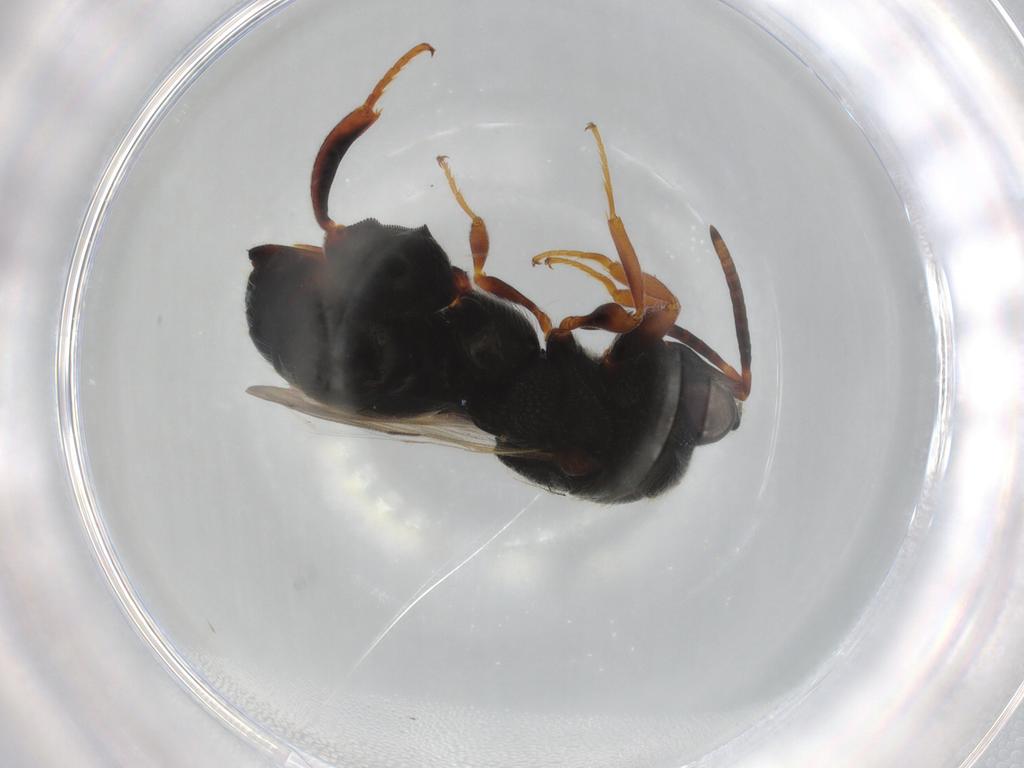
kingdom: Animalia
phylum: Arthropoda
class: Insecta
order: Hymenoptera
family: Chalcididae
